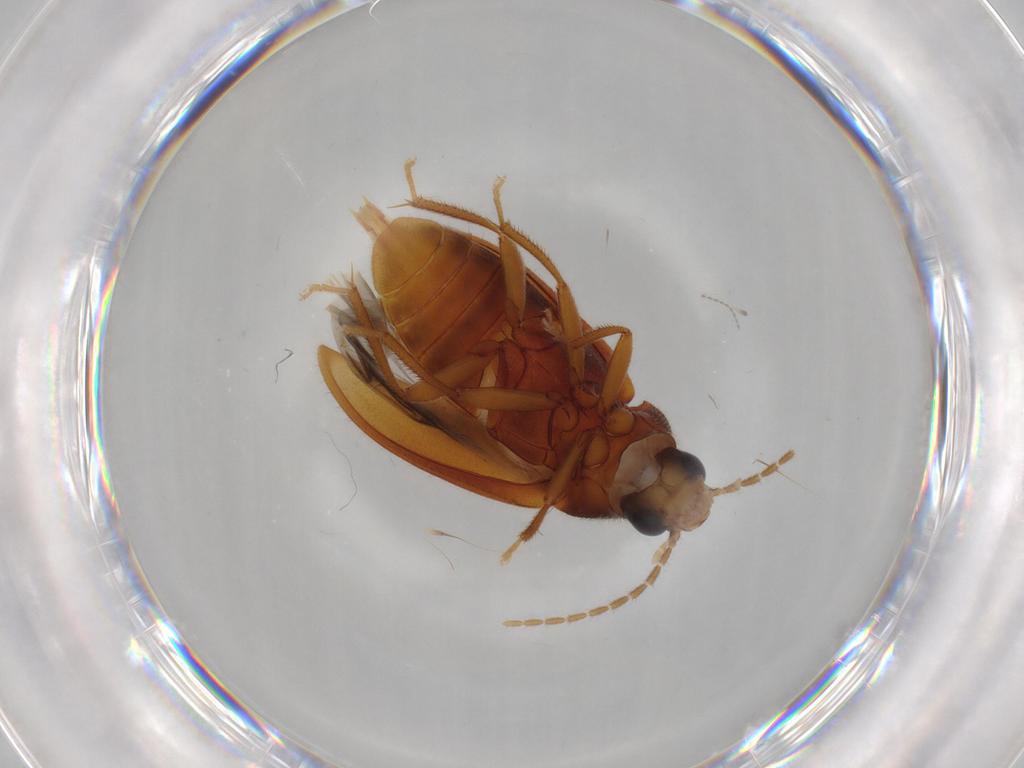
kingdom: Animalia
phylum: Arthropoda
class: Insecta
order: Coleoptera
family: Ptilodactylidae
